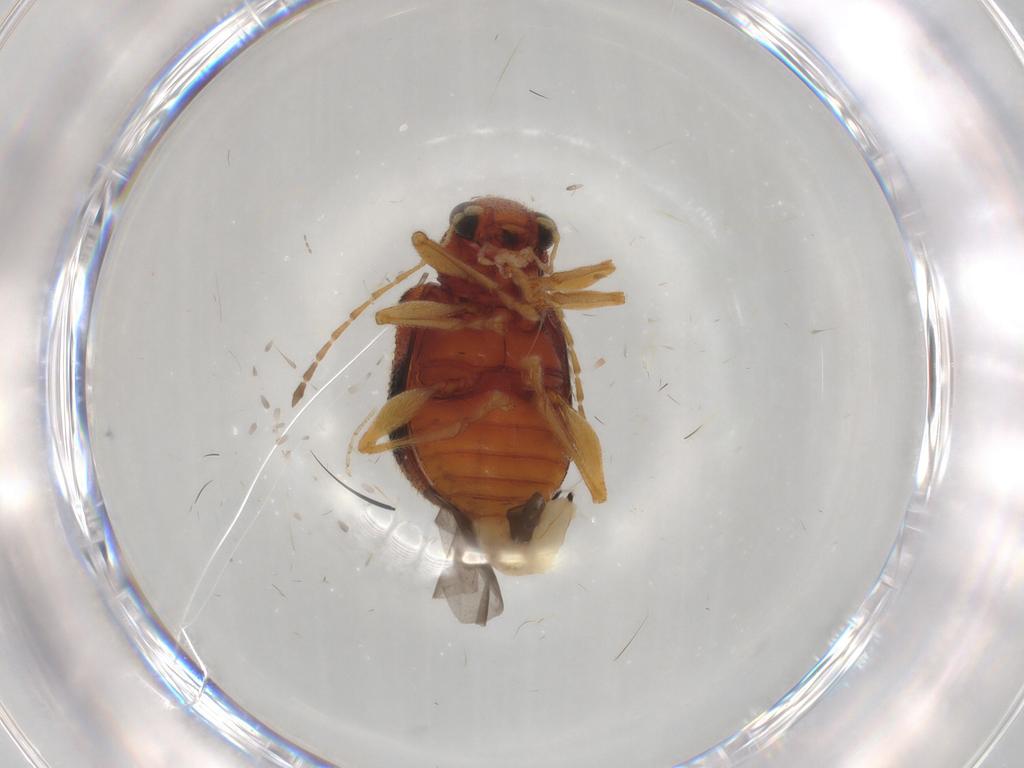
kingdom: Animalia
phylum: Arthropoda
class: Insecta
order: Coleoptera
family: Chrysomelidae
